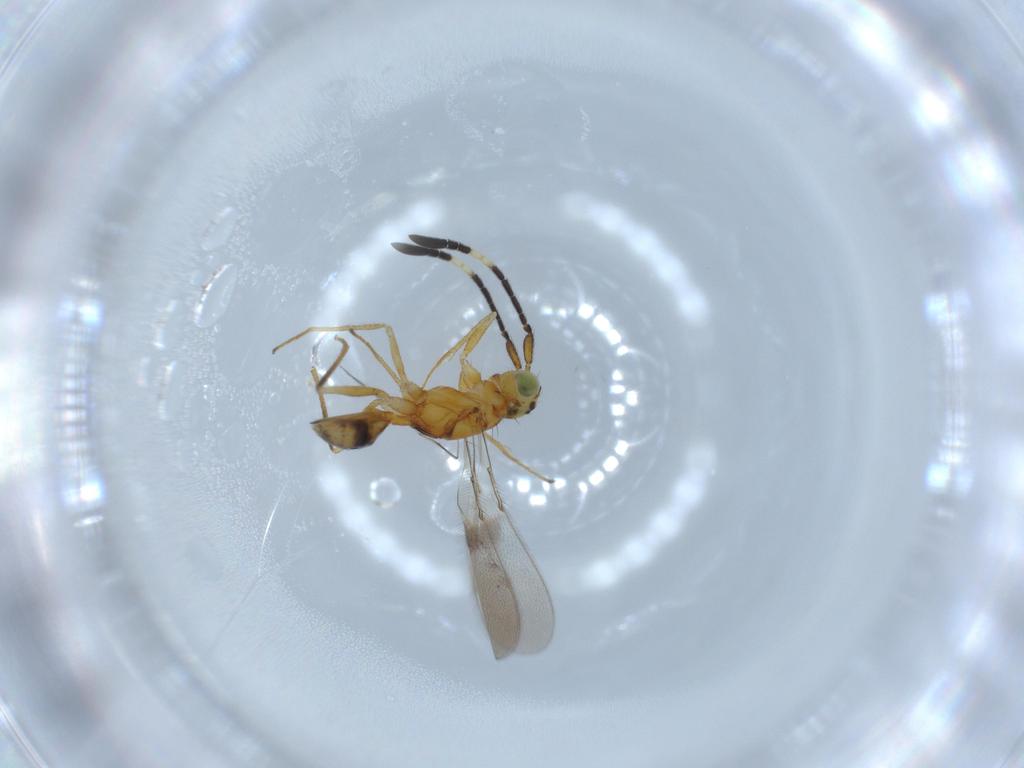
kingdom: Animalia
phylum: Arthropoda
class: Insecta
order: Hymenoptera
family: Mymaridae
